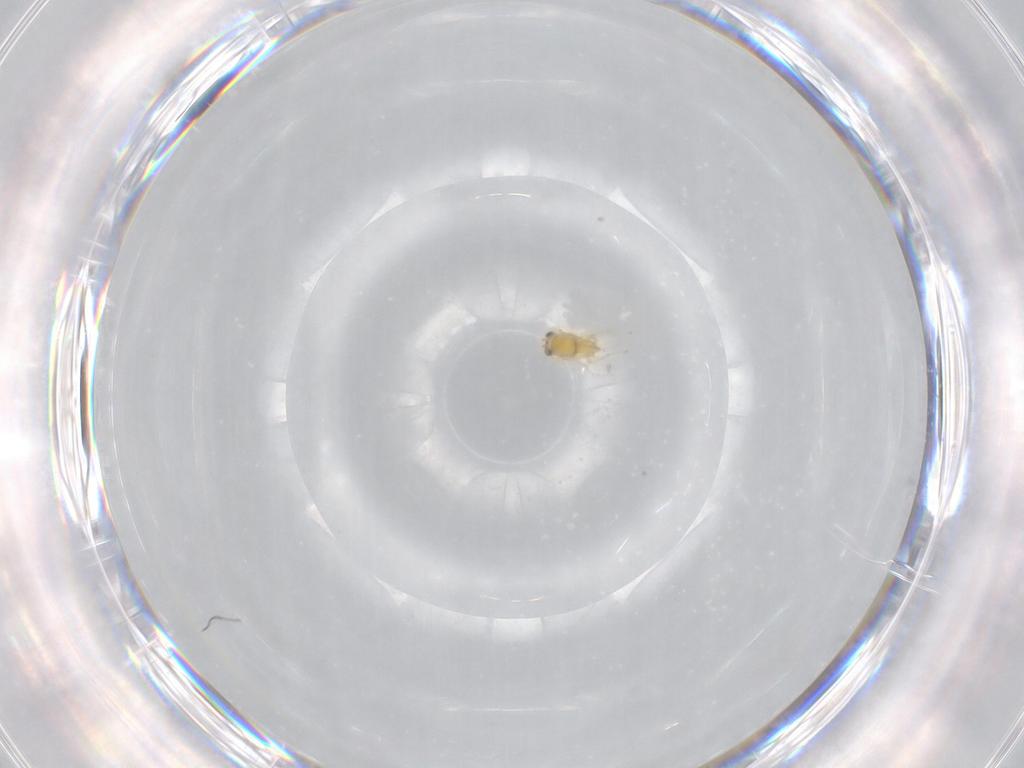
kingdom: Animalia
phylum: Arthropoda
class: Insecta
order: Hymenoptera
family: Aphelinidae
